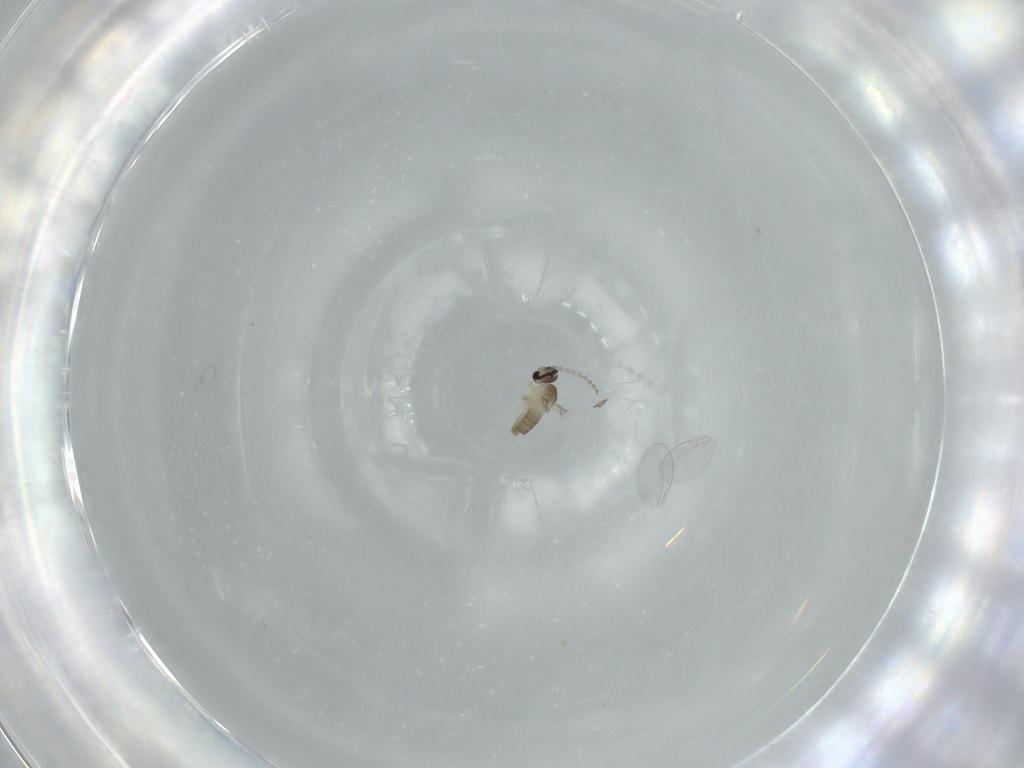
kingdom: Animalia
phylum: Arthropoda
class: Insecta
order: Diptera
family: Cecidomyiidae
